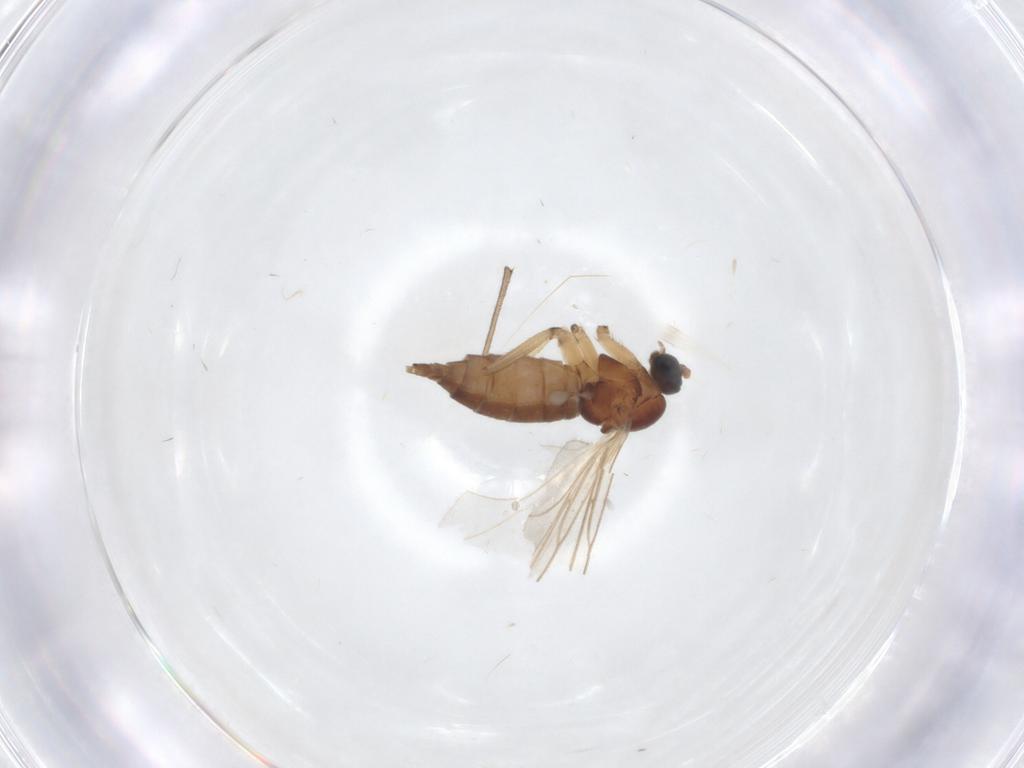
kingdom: Animalia
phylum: Arthropoda
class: Insecta
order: Diptera
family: Sciaridae
